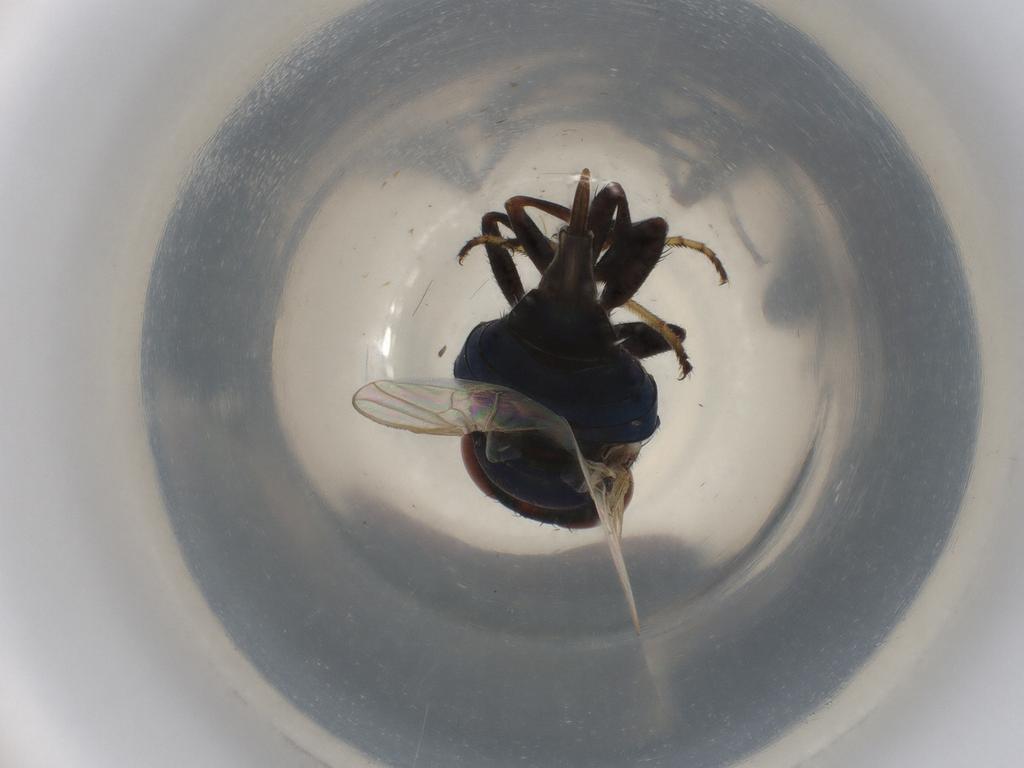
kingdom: Animalia
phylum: Arthropoda
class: Insecta
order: Diptera
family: Ulidiidae
